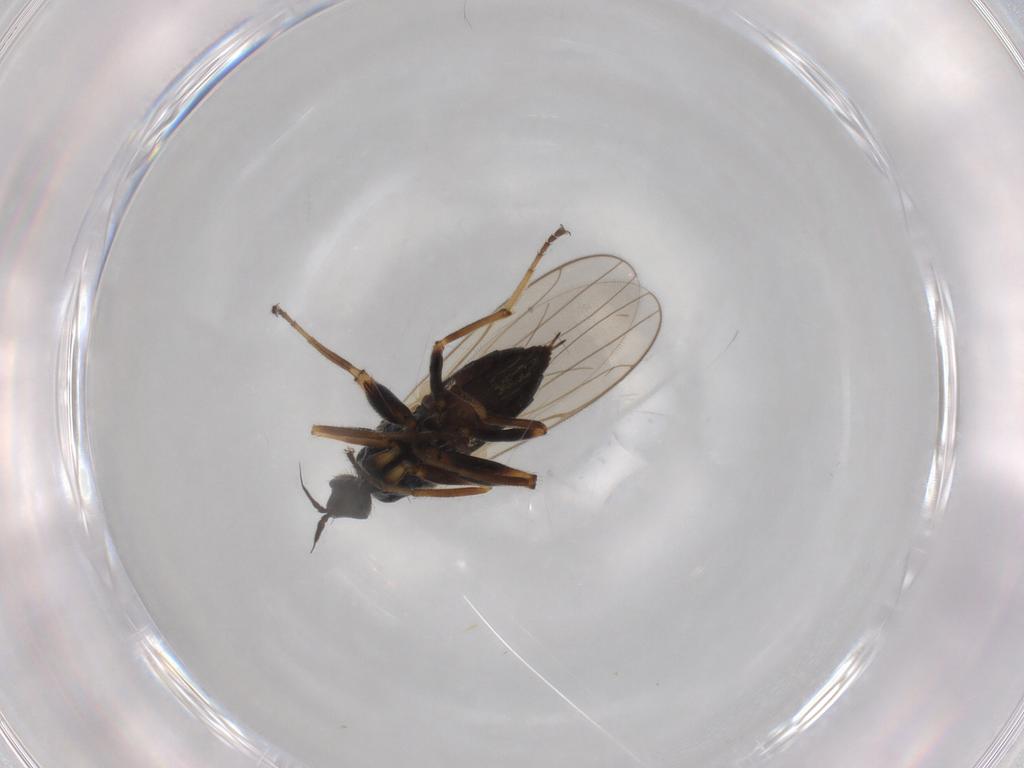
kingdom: Animalia
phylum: Arthropoda
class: Insecta
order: Diptera
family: Cecidomyiidae
